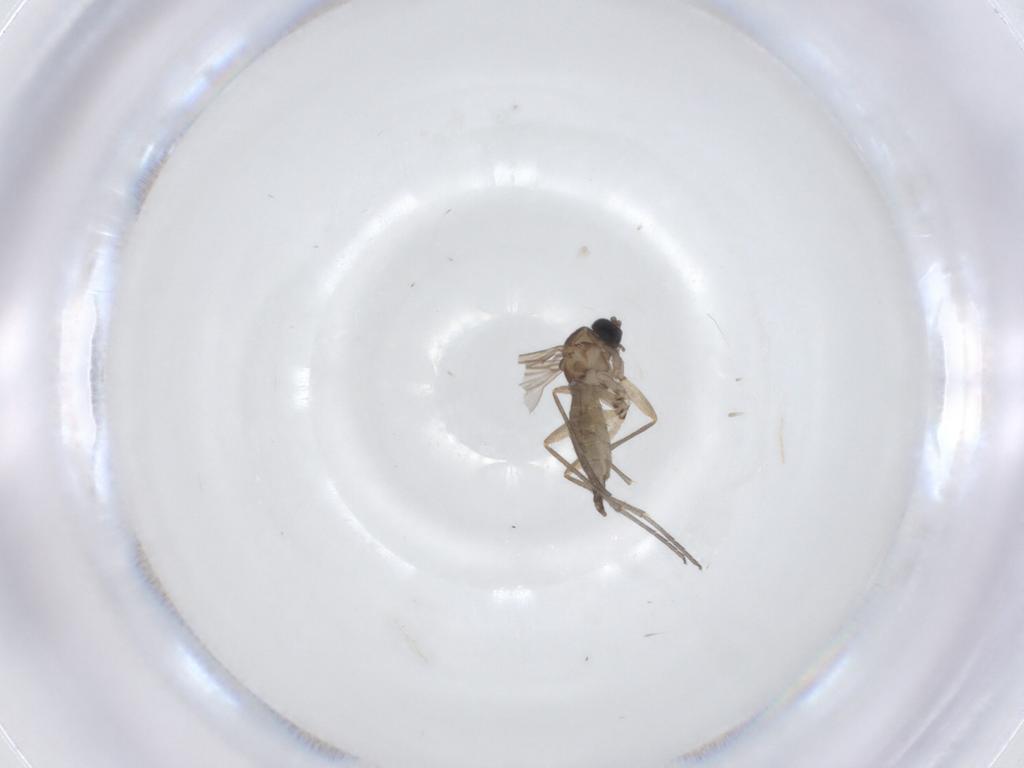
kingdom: Animalia
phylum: Arthropoda
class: Insecta
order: Diptera
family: Sciaridae
